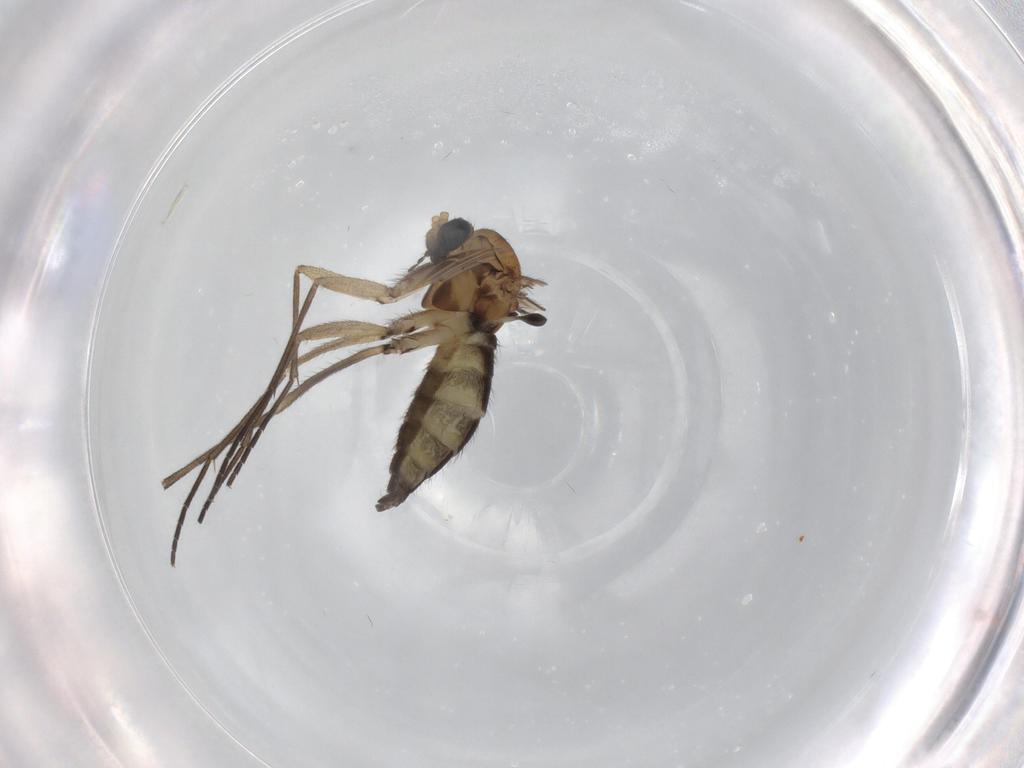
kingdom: Animalia
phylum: Arthropoda
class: Insecta
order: Diptera
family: Sciaridae
